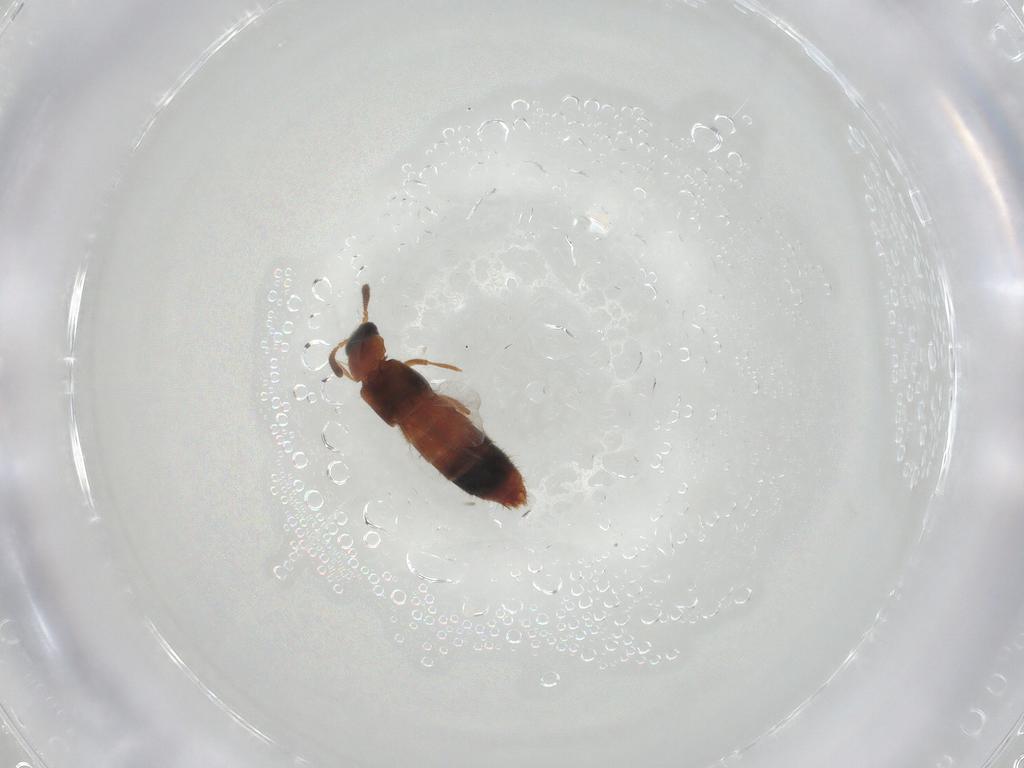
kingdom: Animalia
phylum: Arthropoda
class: Insecta
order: Coleoptera
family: Staphylinidae
